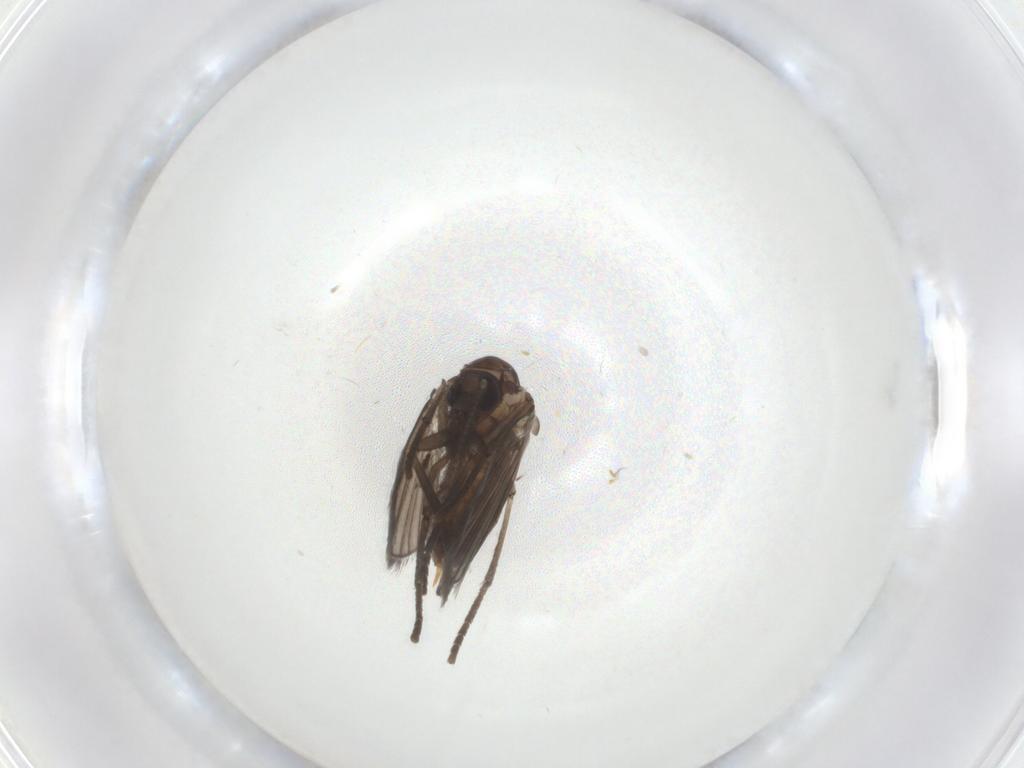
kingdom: Animalia
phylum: Arthropoda
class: Insecta
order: Diptera
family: Psychodidae
